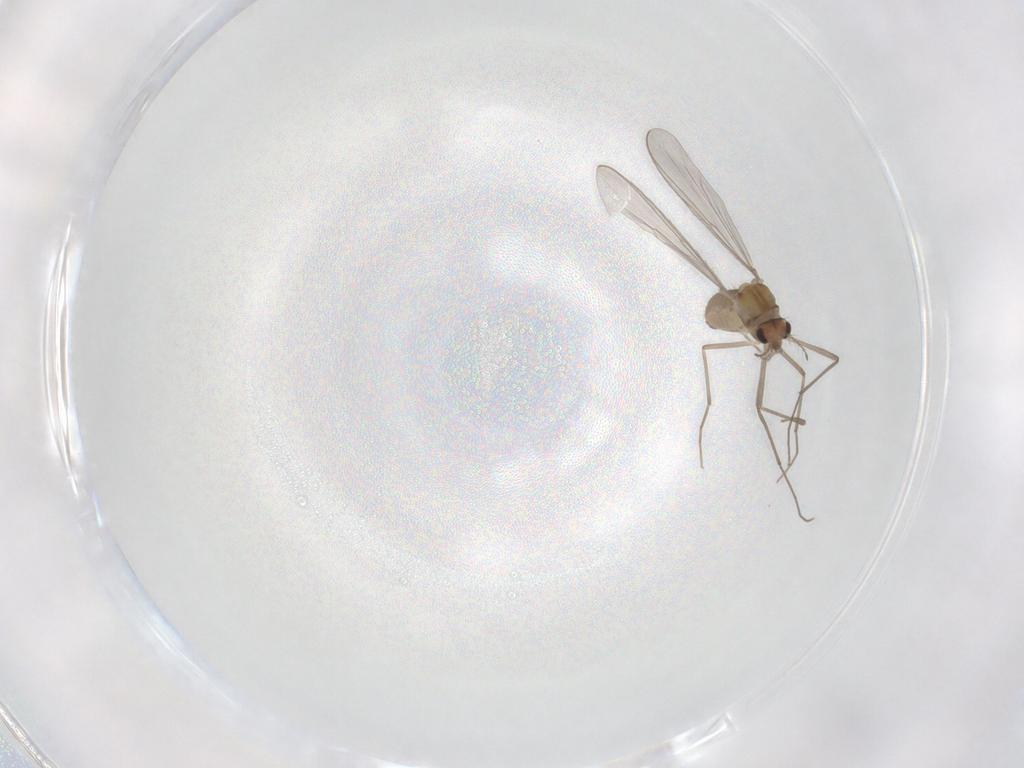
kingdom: Animalia
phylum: Arthropoda
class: Insecta
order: Diptera
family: Chironomidae
